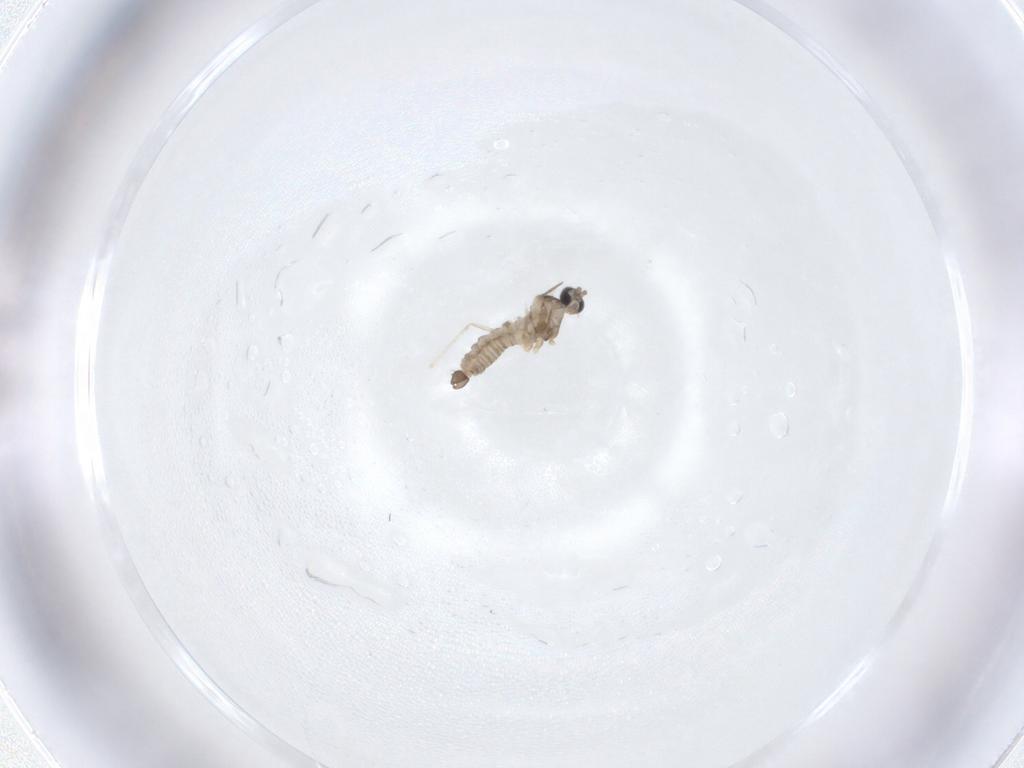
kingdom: Animalia
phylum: Arthropoda
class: Insecta
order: Diptera
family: Cecidomyiidae
